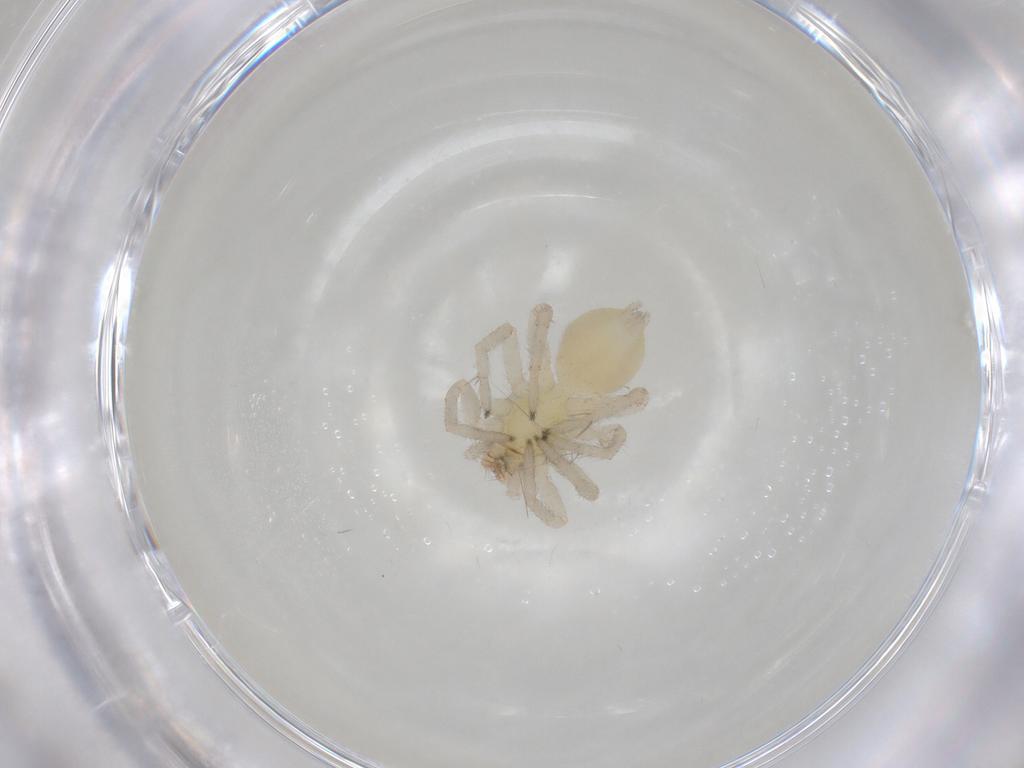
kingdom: Animalia
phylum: Arthropoda
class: Arachnida
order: Araneae
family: Clubionidae
